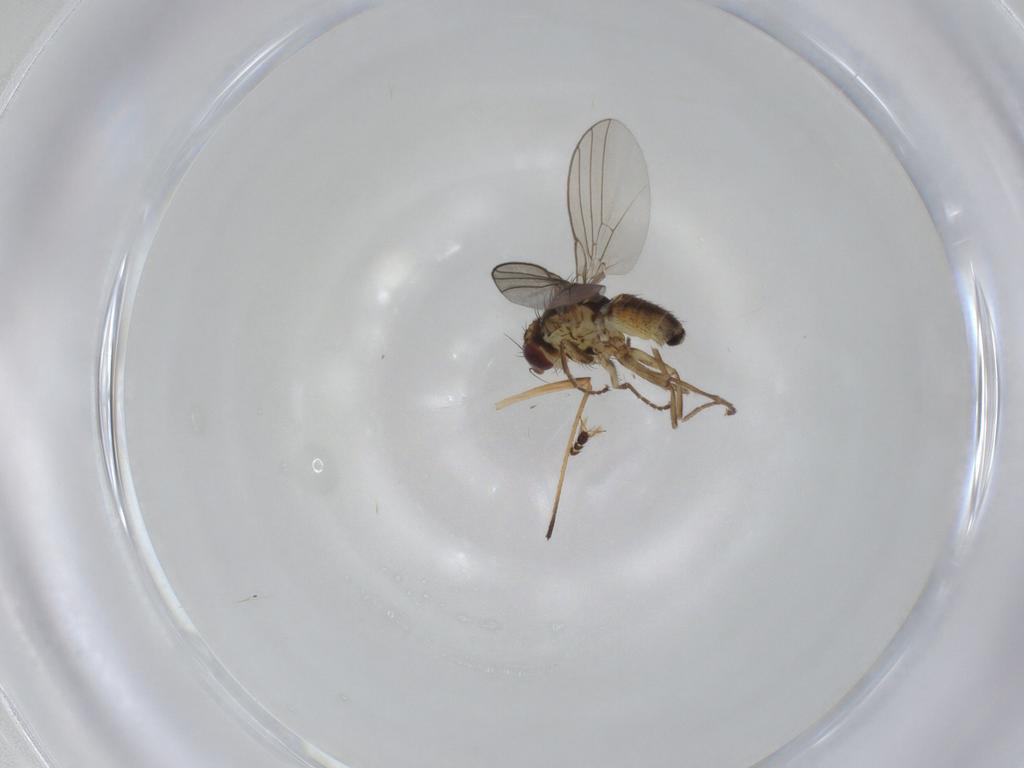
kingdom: Animalia
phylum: Arthropoda
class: Insecta
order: Diptera
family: Agromyzidae
